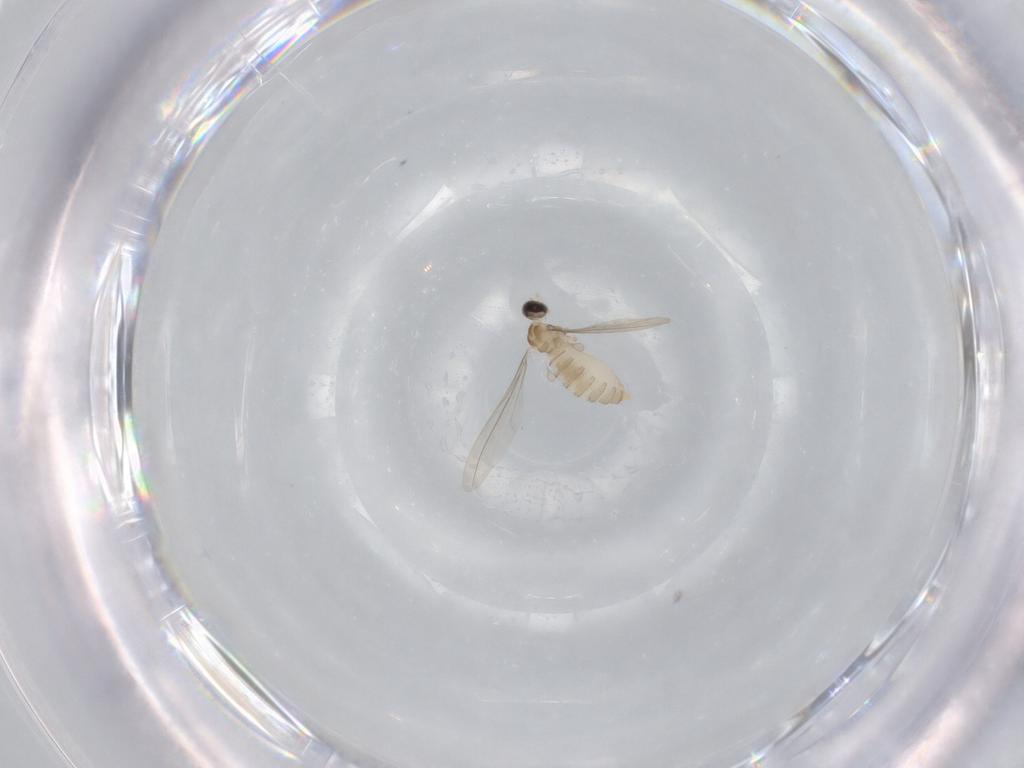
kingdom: Animalia
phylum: Arthropoda
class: Insecta
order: Diptera
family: Cecidomyiidae
